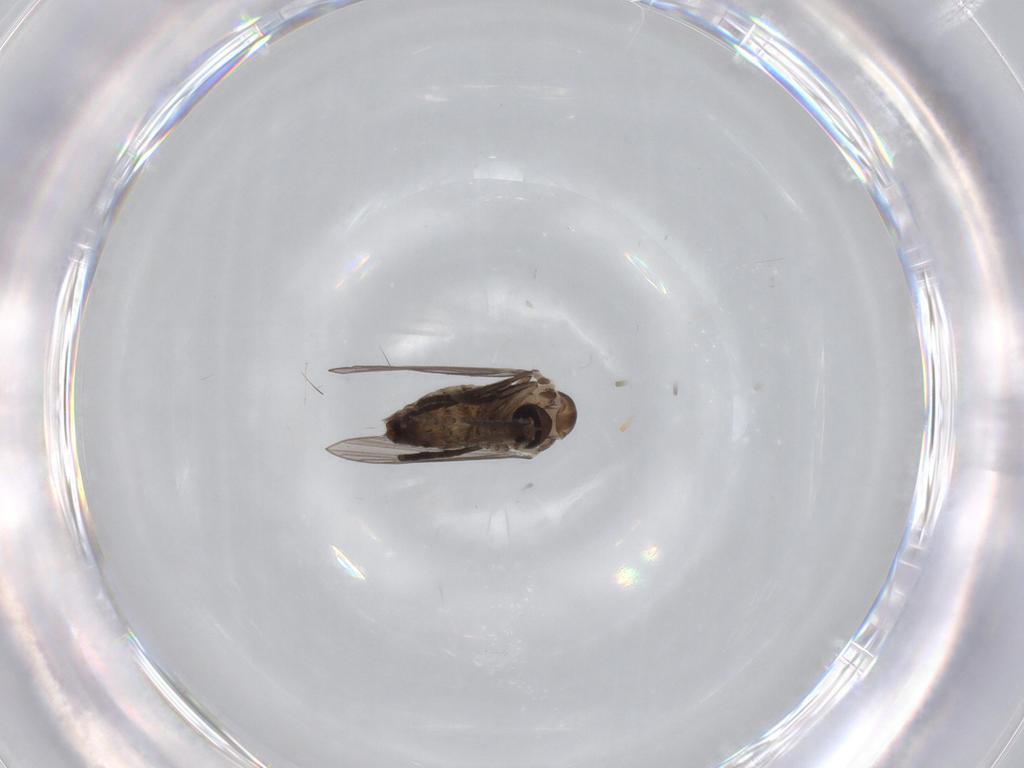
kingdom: Animalia
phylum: Arthropoda
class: Insecta
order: Diptera
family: Psychodidae
